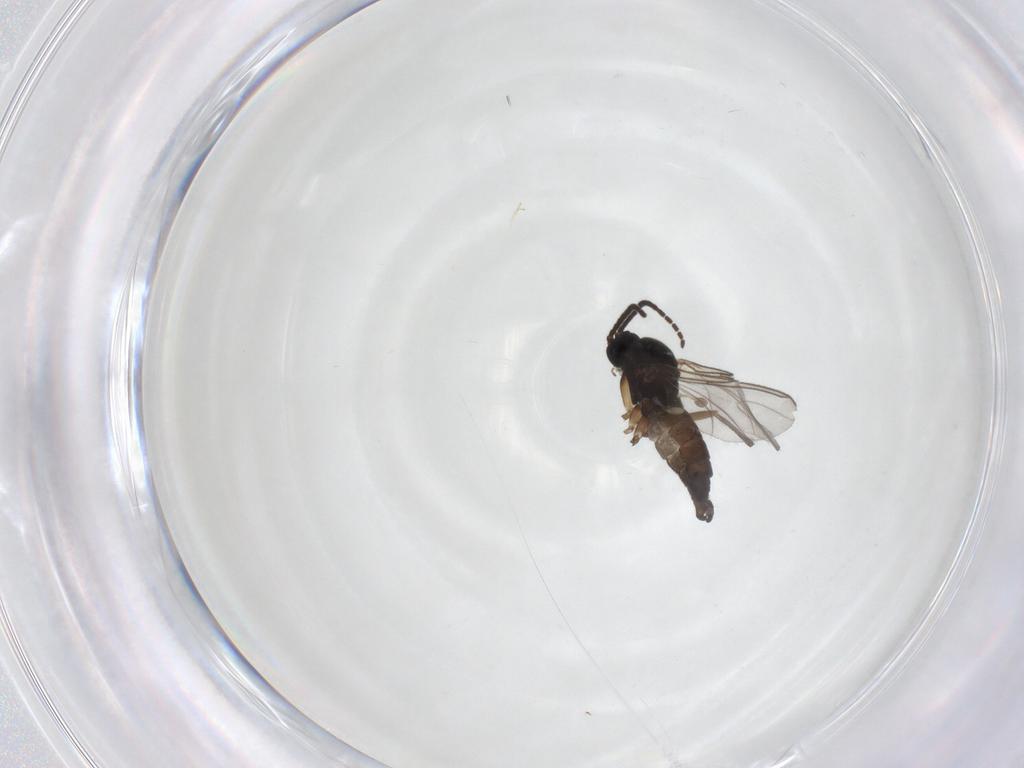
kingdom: Animalia
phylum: Arthropoda
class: Insecta
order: Diptera
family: Sciaridae
